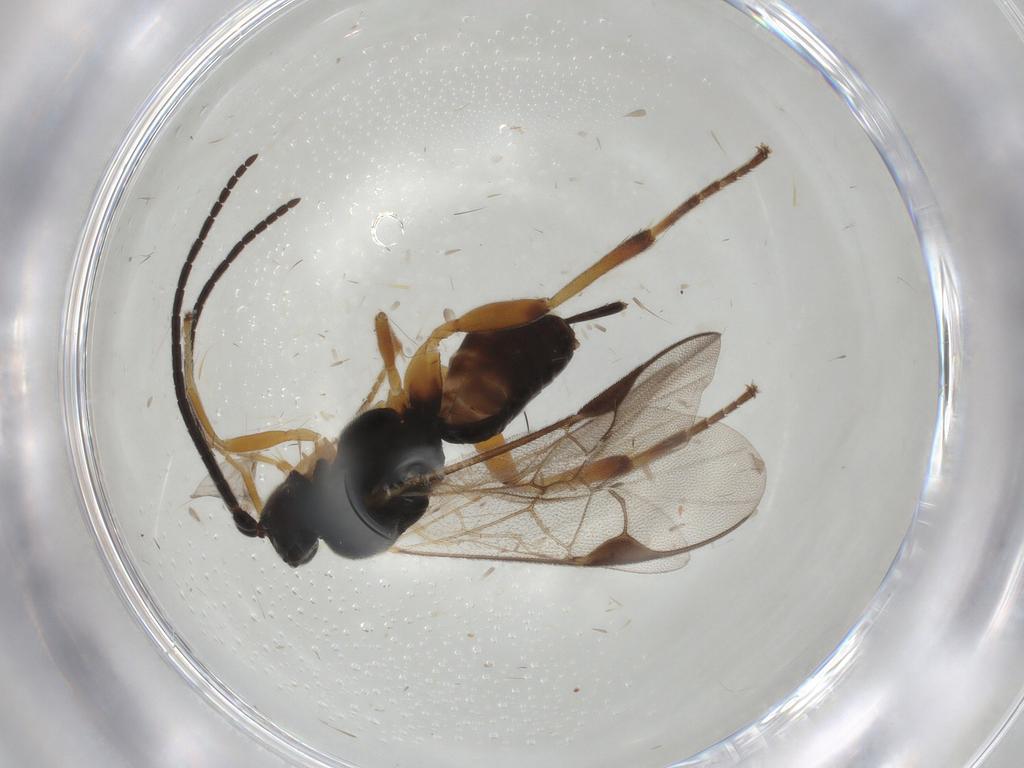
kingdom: Animalia
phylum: Arthropoda
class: Insecta
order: Hymenoptera
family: Braconidae
